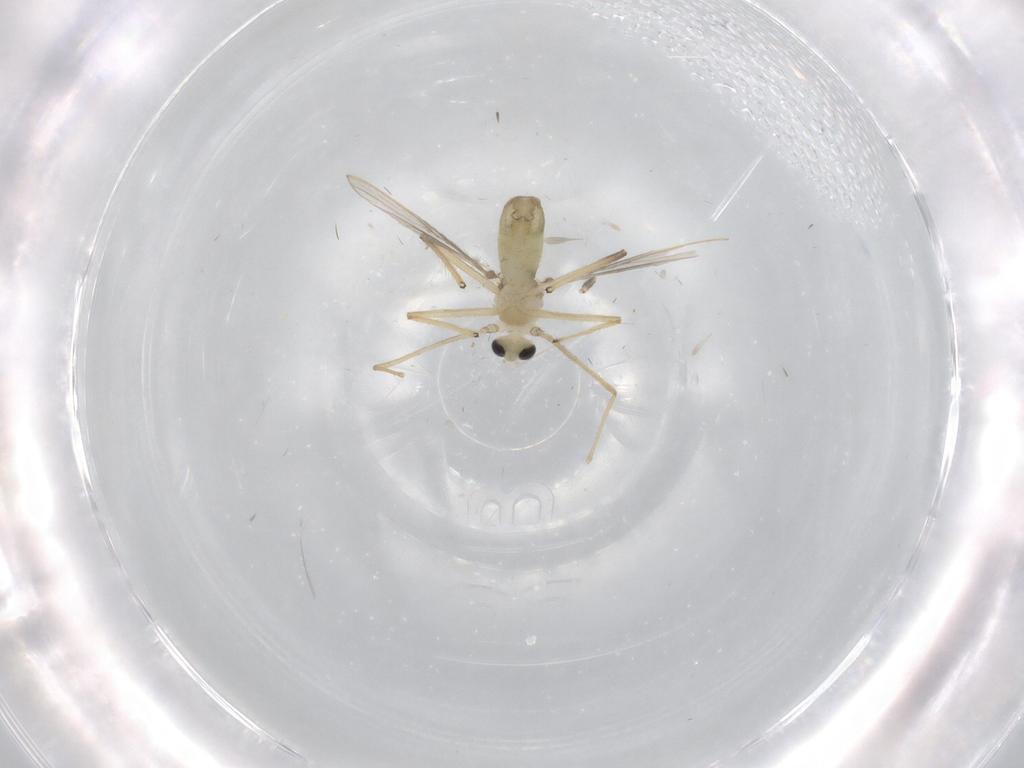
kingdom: Animalia
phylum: Arthropoda
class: Insecta
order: Diptera
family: Chironomidae
